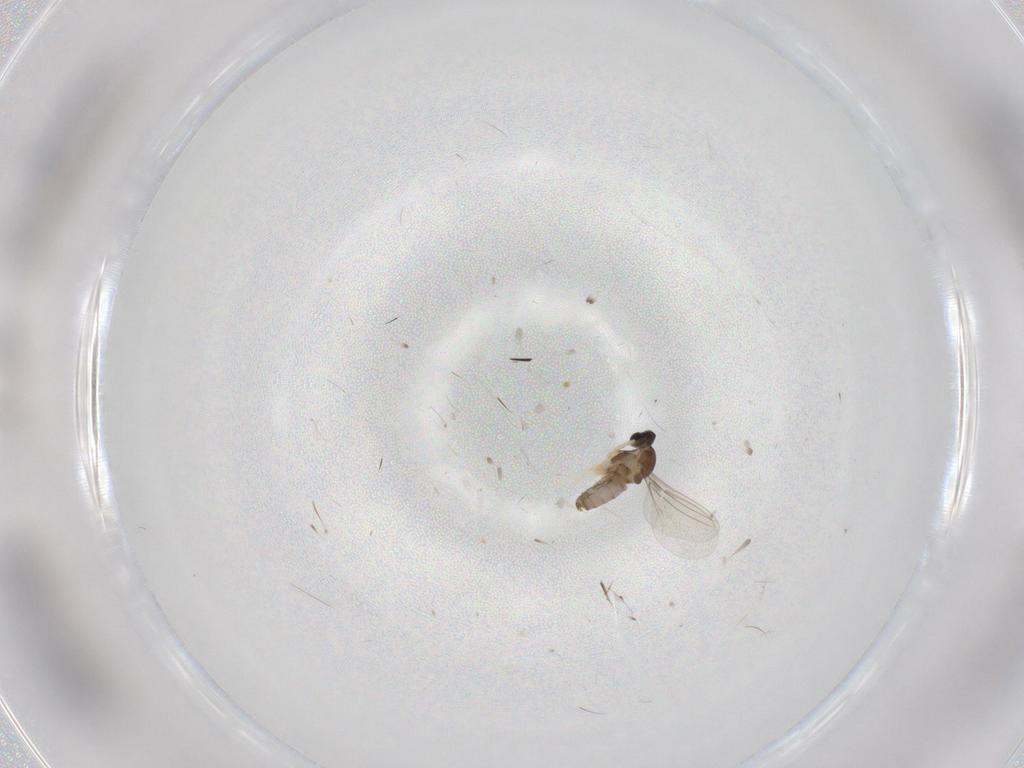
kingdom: Animalia
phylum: Arthropoda
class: Insecta
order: Diptera
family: Cecidomyiidae
